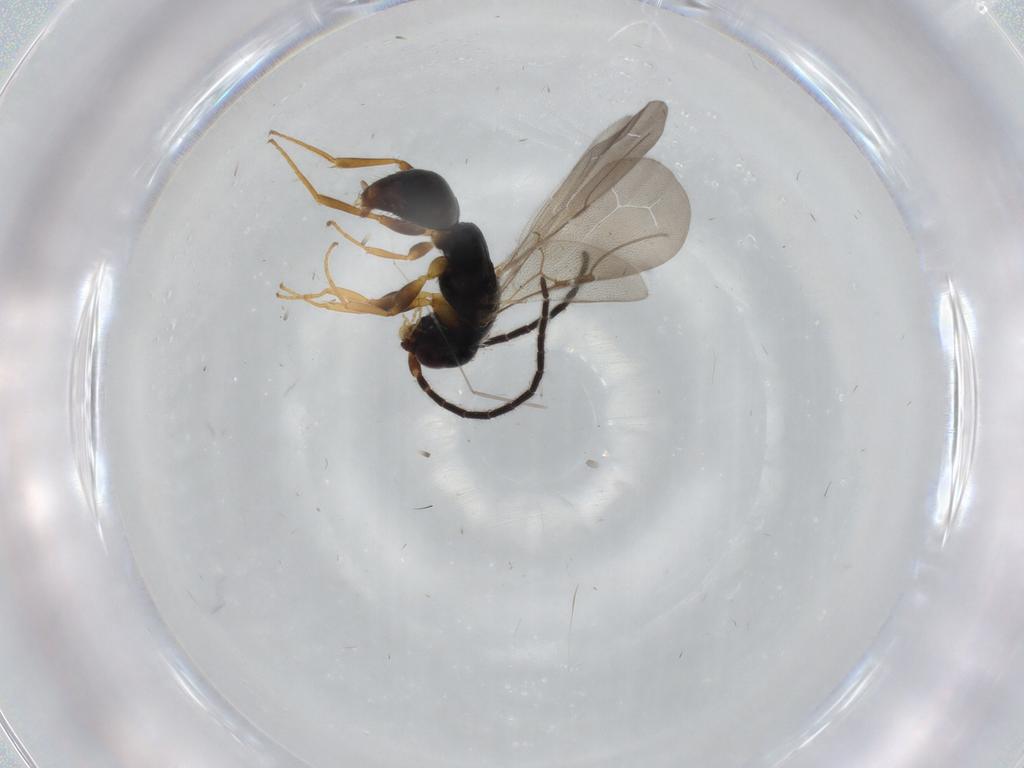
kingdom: Animalia
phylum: Arthropoda
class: Insecta
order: Hymenoptera
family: Bethylidae
